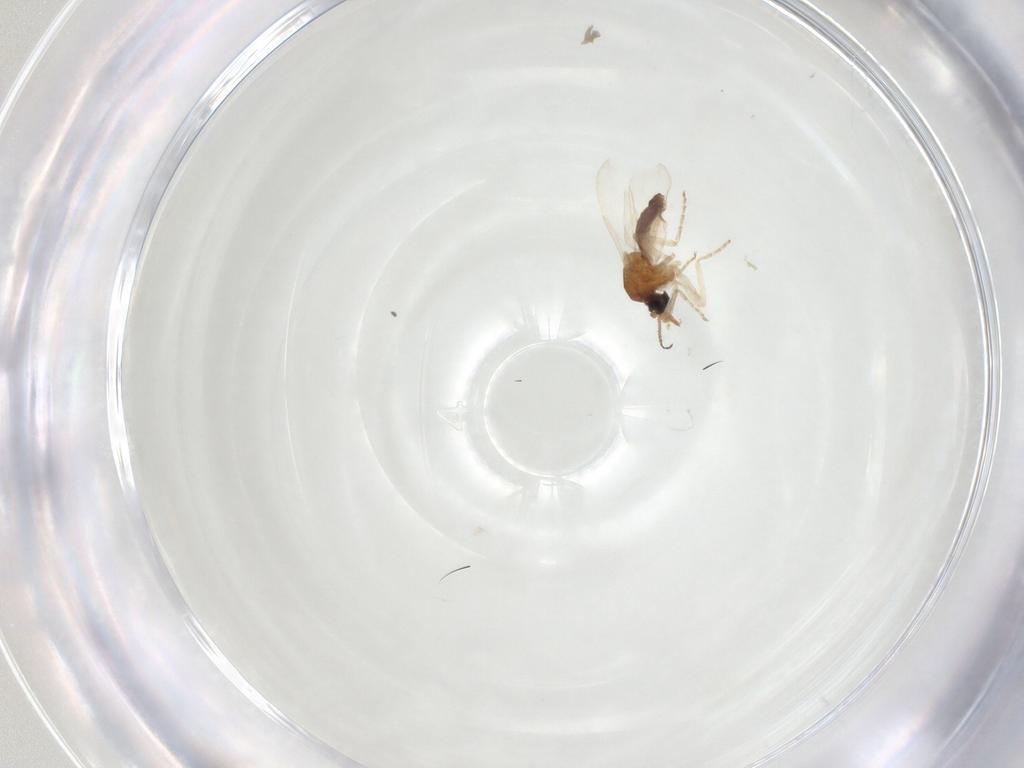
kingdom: Animalia
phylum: Arthropoda
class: Insecta
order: Diptera
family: Ceratopogonidae
